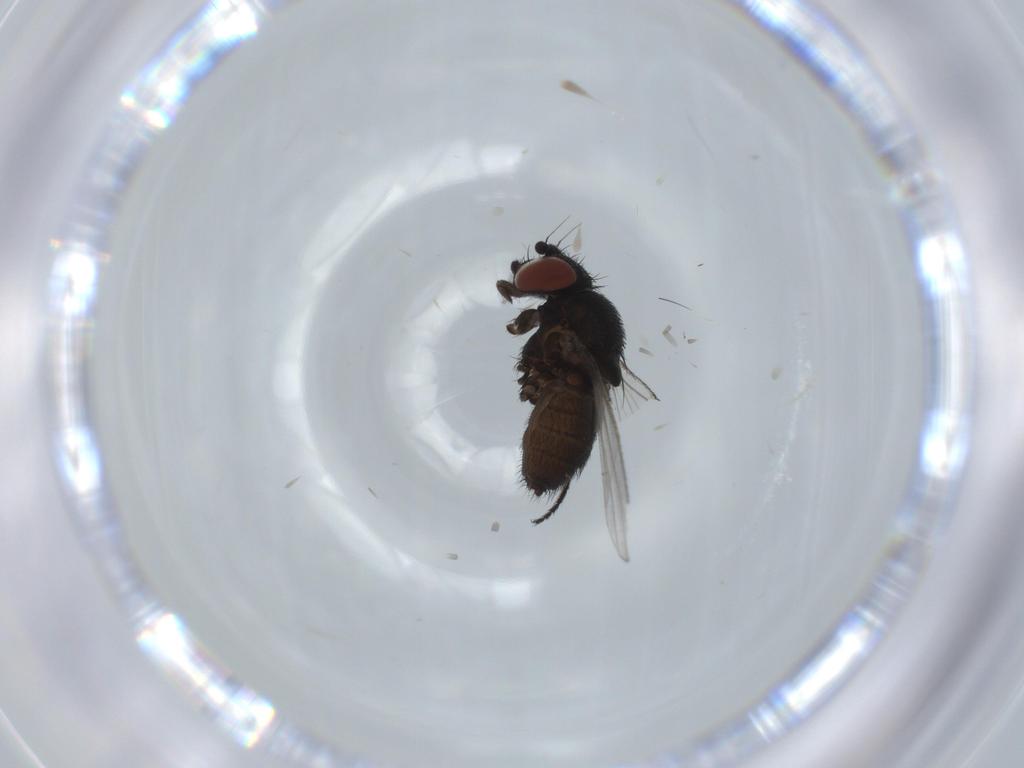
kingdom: Animalia
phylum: Arthropoda
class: Insecta
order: Diptera
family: Milichiidae
